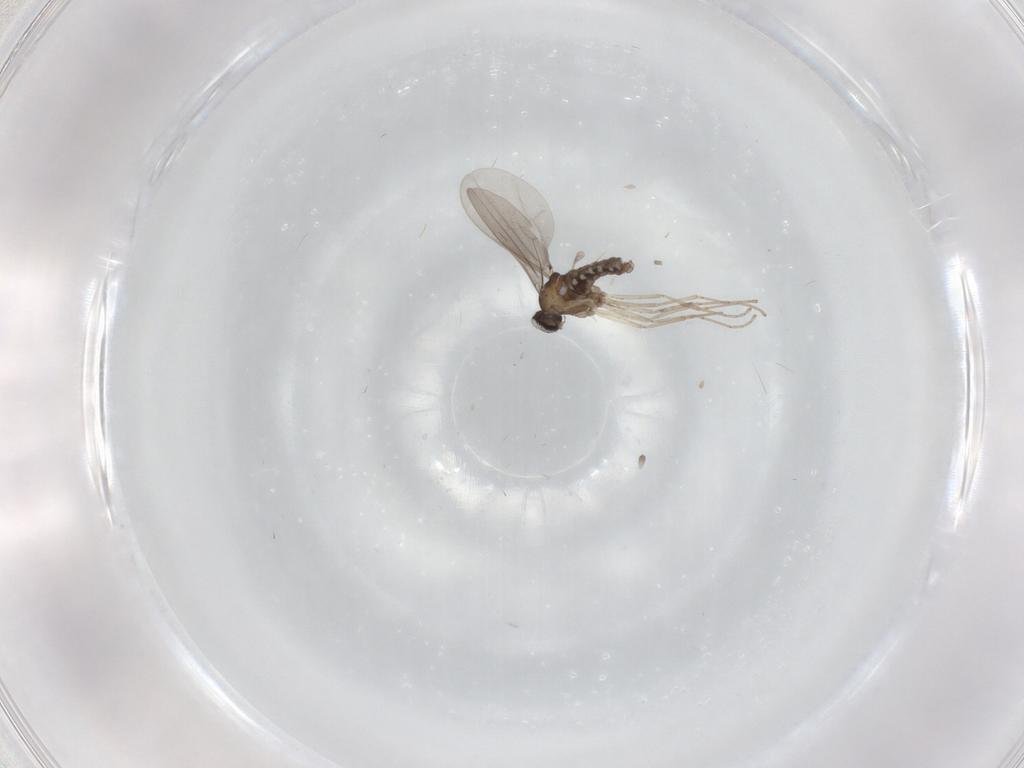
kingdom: Animalia
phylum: Arthropoda
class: Insecta
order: Diptera
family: Cecidomyiidae
